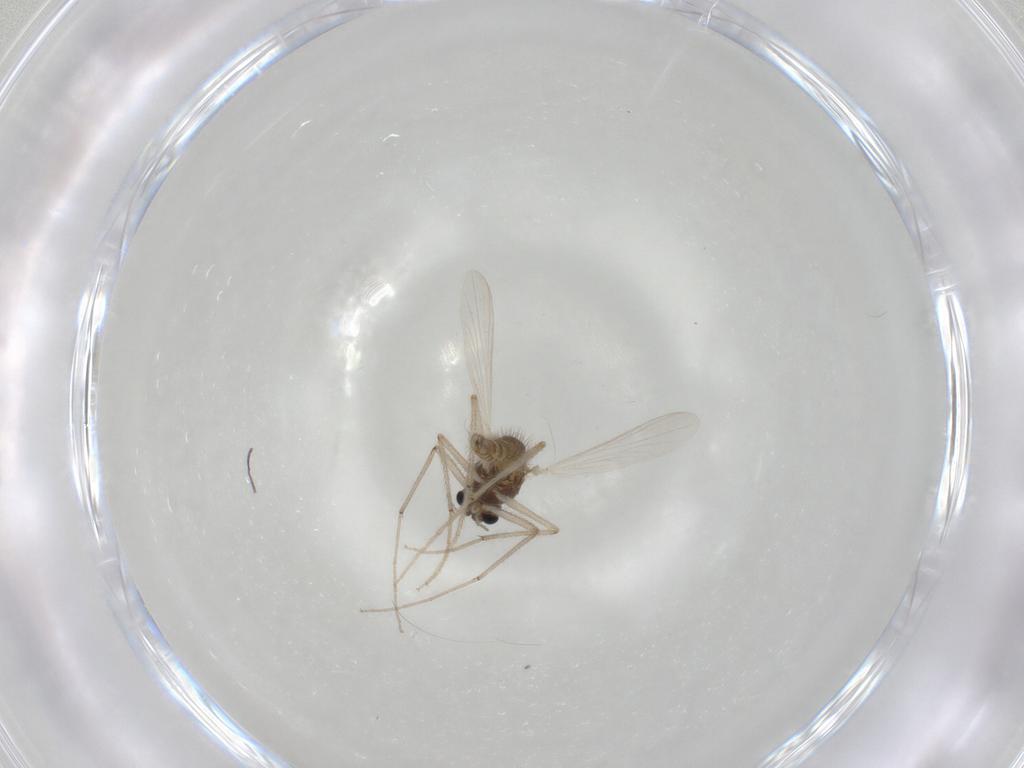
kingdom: Animalia
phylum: Arthropoda
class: Insecta
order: Diptera
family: Chironomidae
